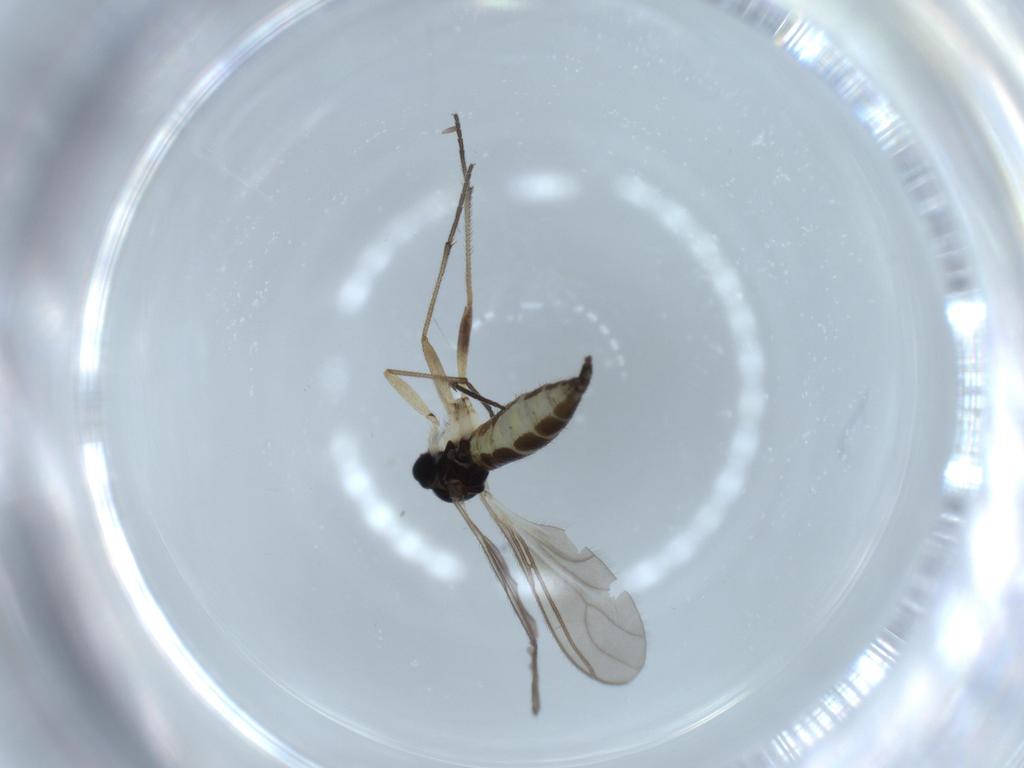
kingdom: Animalia
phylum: Arthropoda
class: Insecta
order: Diptera
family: Sciaridae
